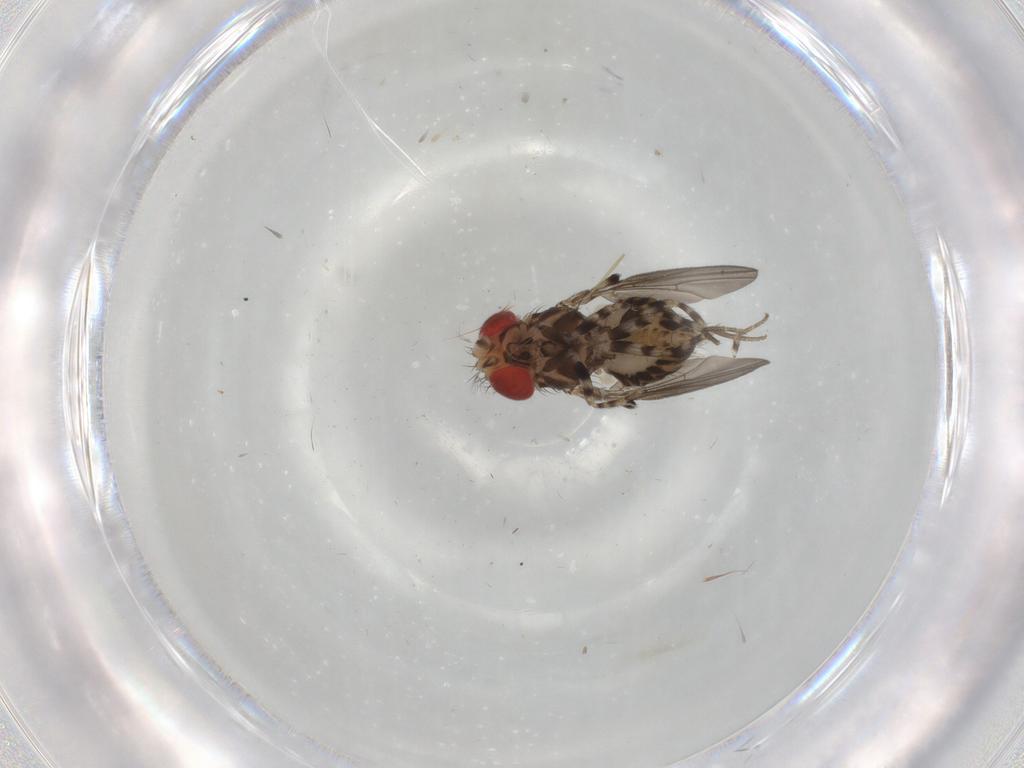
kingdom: Animalia
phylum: Arthropoda
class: Insecta
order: Diptera
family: Drosophilidae
